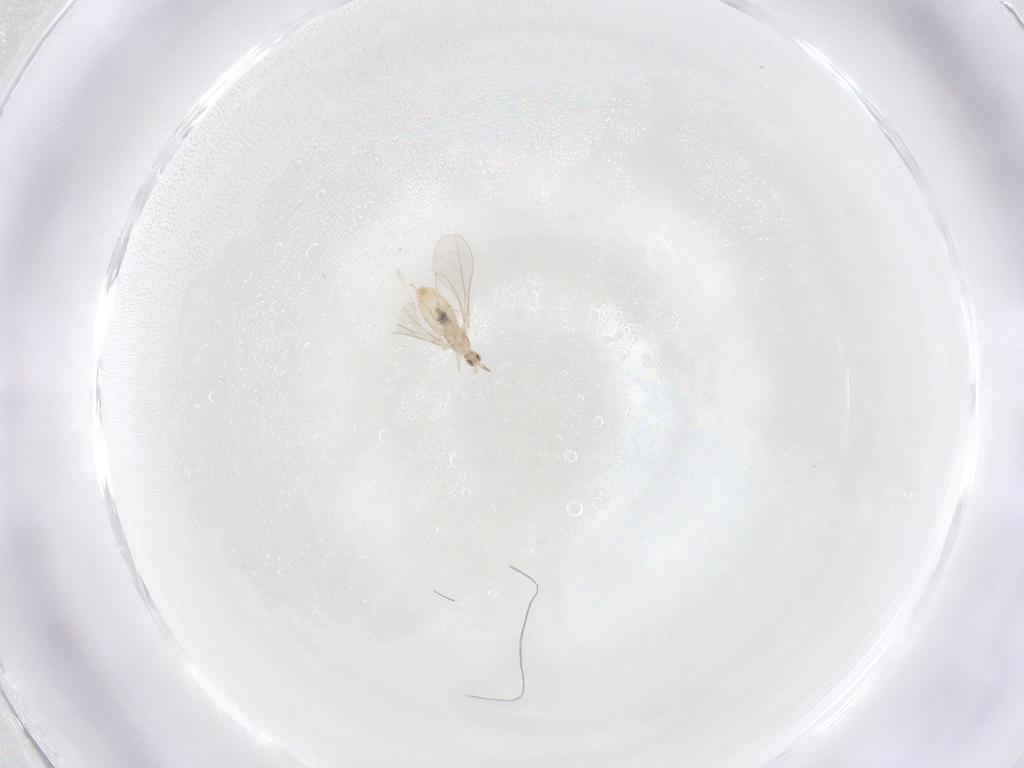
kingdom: Animalia
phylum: Arthropoda
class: Insecta
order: Diptera
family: Cecidomyiidae
